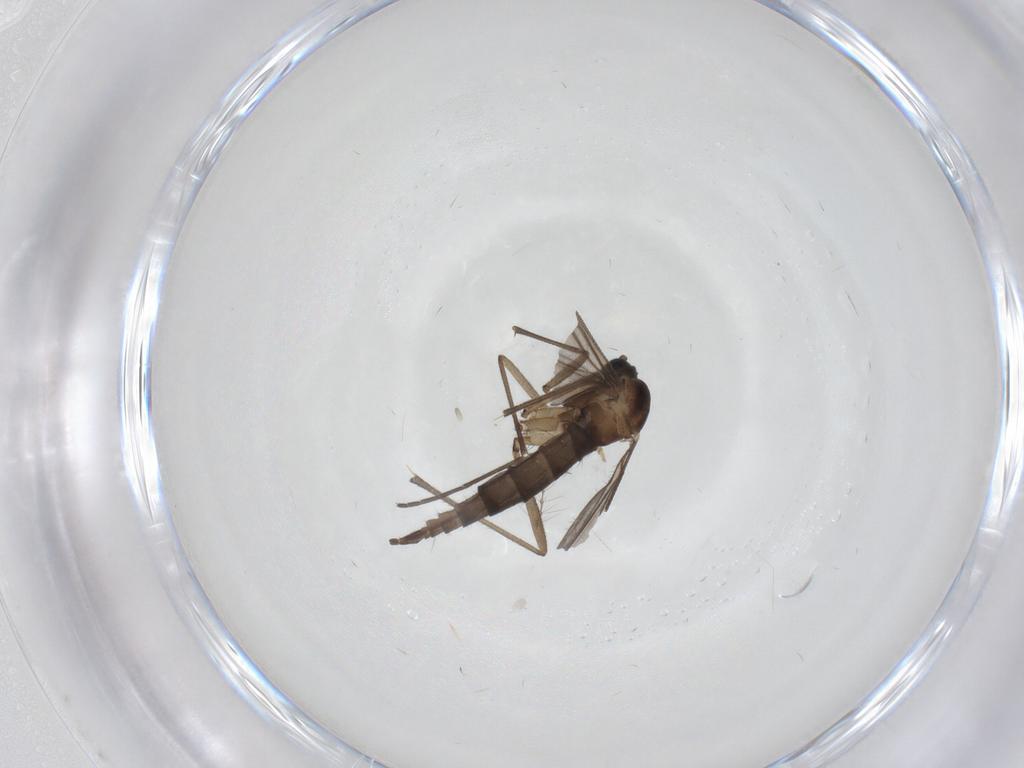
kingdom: Animalia
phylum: Arthropoda
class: Insecta
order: Diptera
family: Sciaridae
